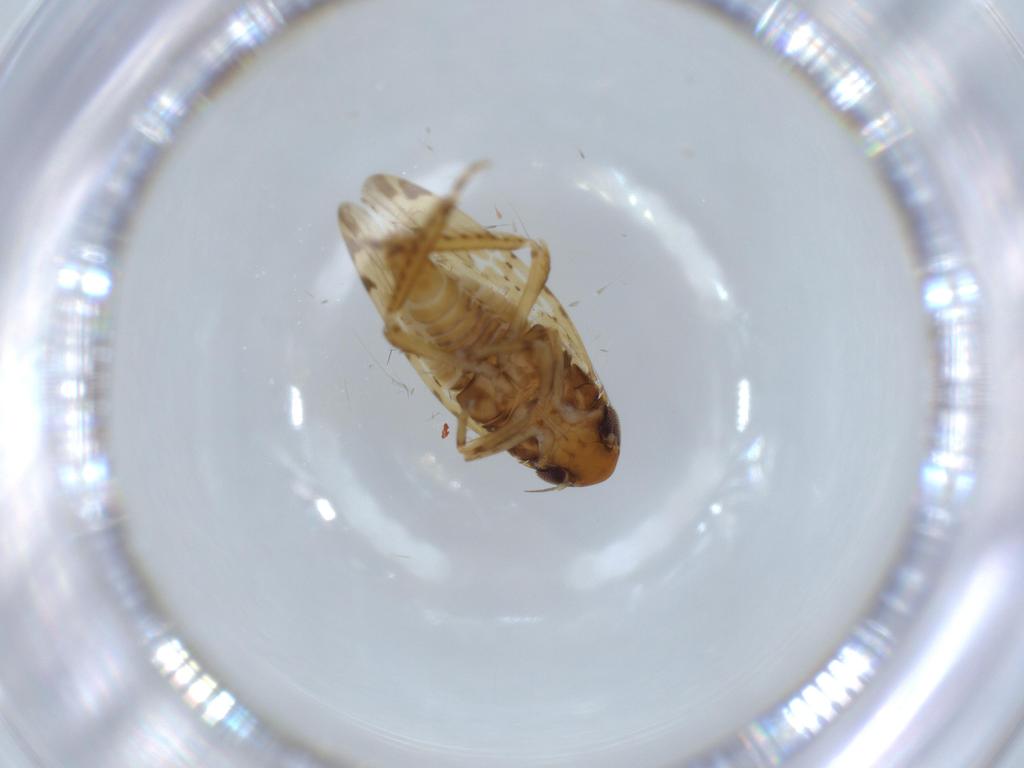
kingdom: Animalia
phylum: Arthropoda
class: Insecta
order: Hemiptera
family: Cicadellidae
